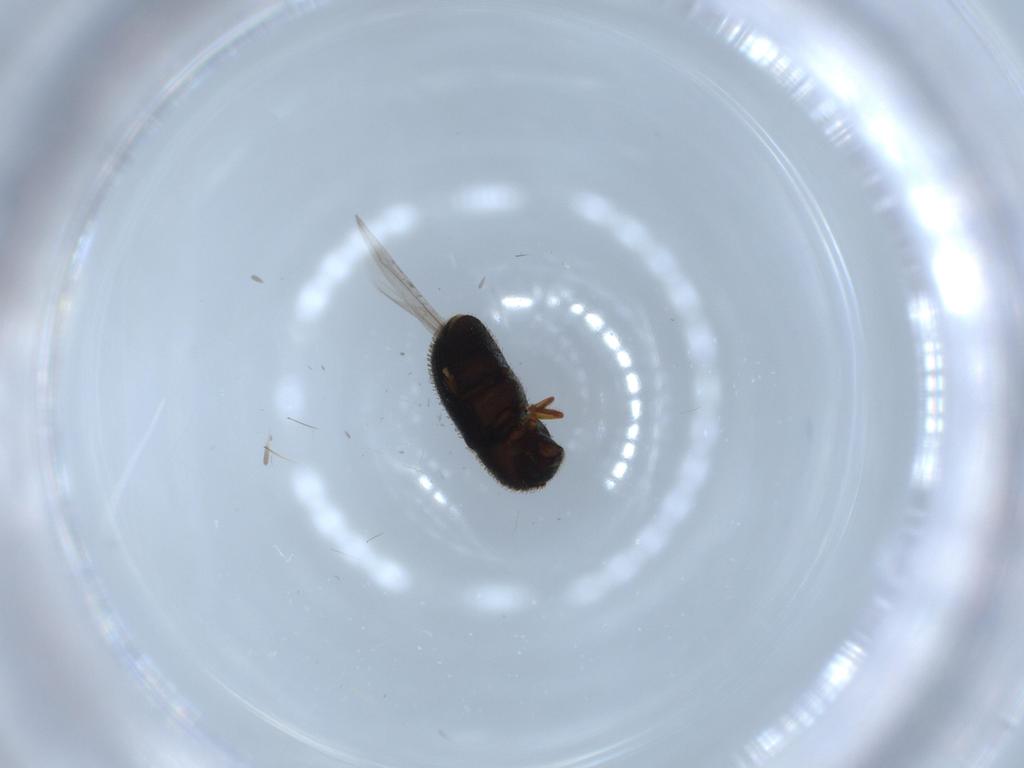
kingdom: Animalia
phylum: Arthropoda
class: Insecta
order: Coleoptera
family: Curculionidae
